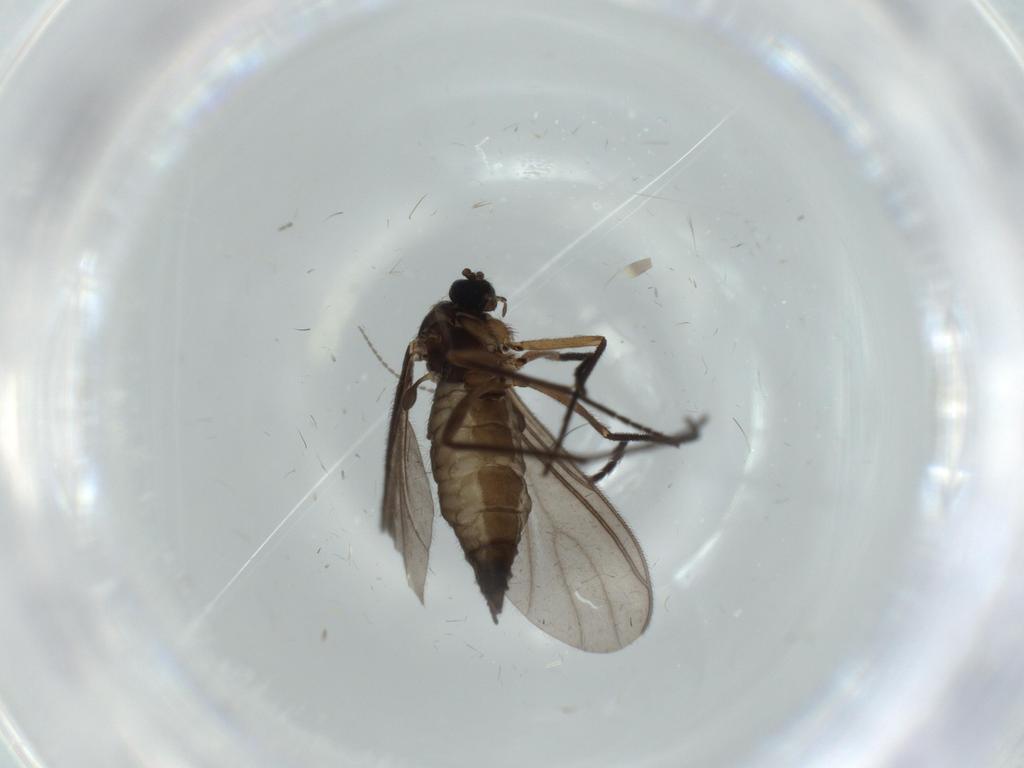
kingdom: Animalia
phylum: Arthropoda
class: Insecta
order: Diptera
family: Sciaridae
